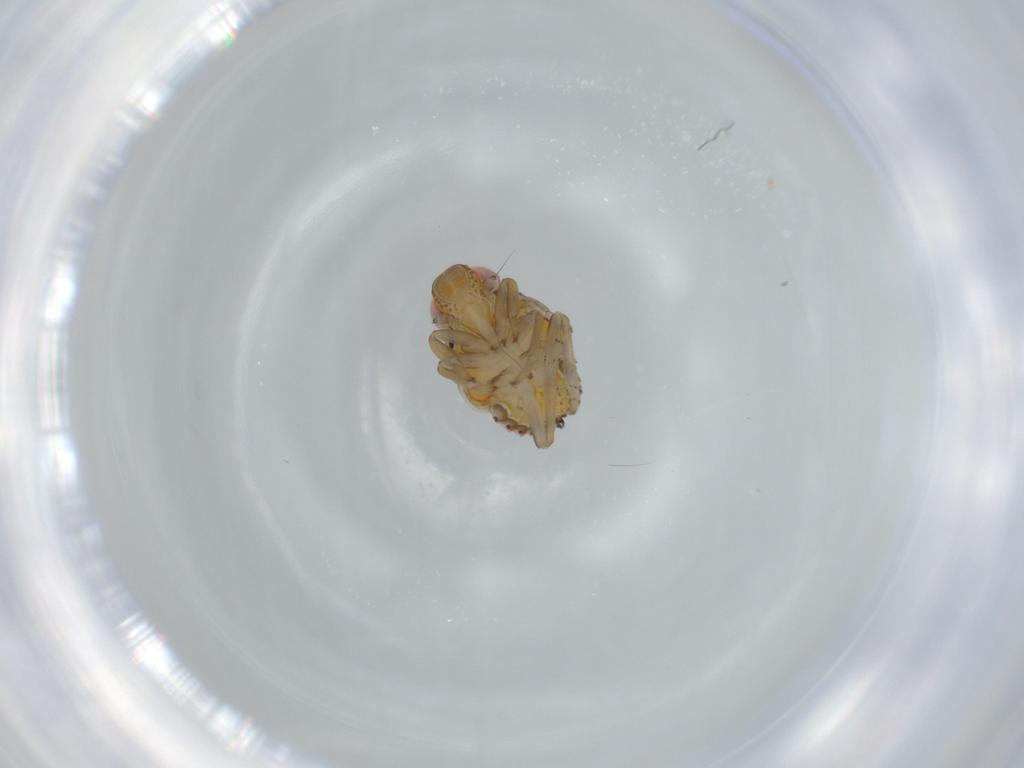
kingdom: Animalia
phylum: Arthropoda
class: Insecta
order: Hemiptera
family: Issidae
